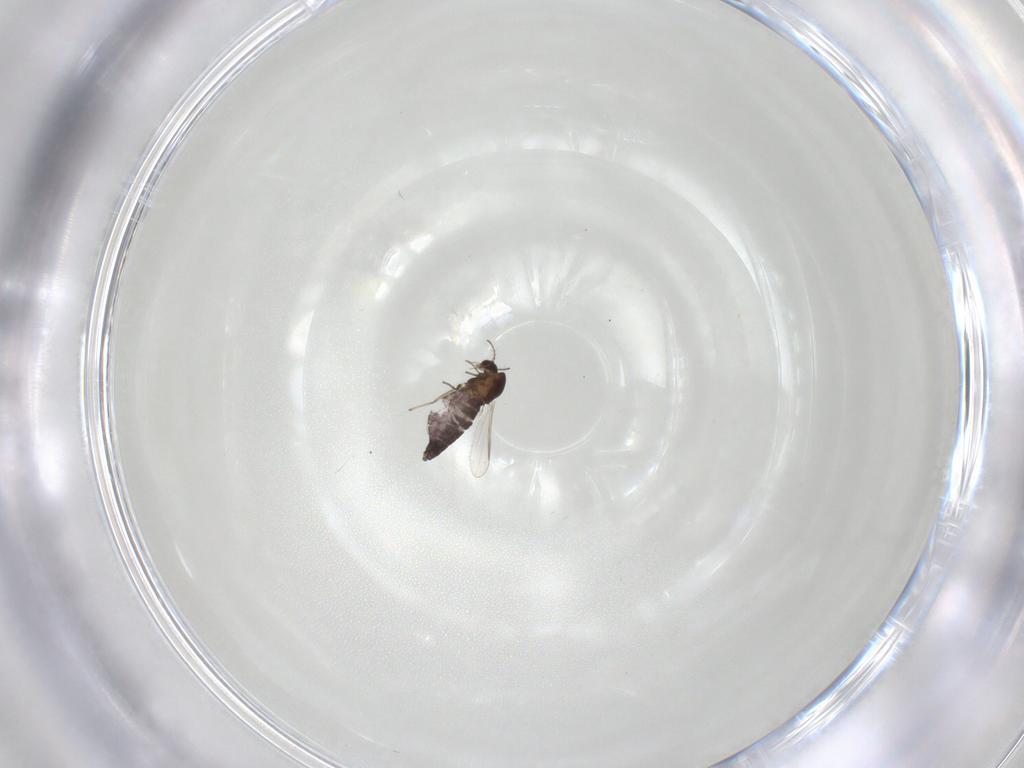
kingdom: Animalia
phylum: Arthropoda
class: Insecta
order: Diptera
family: Chironomidae
